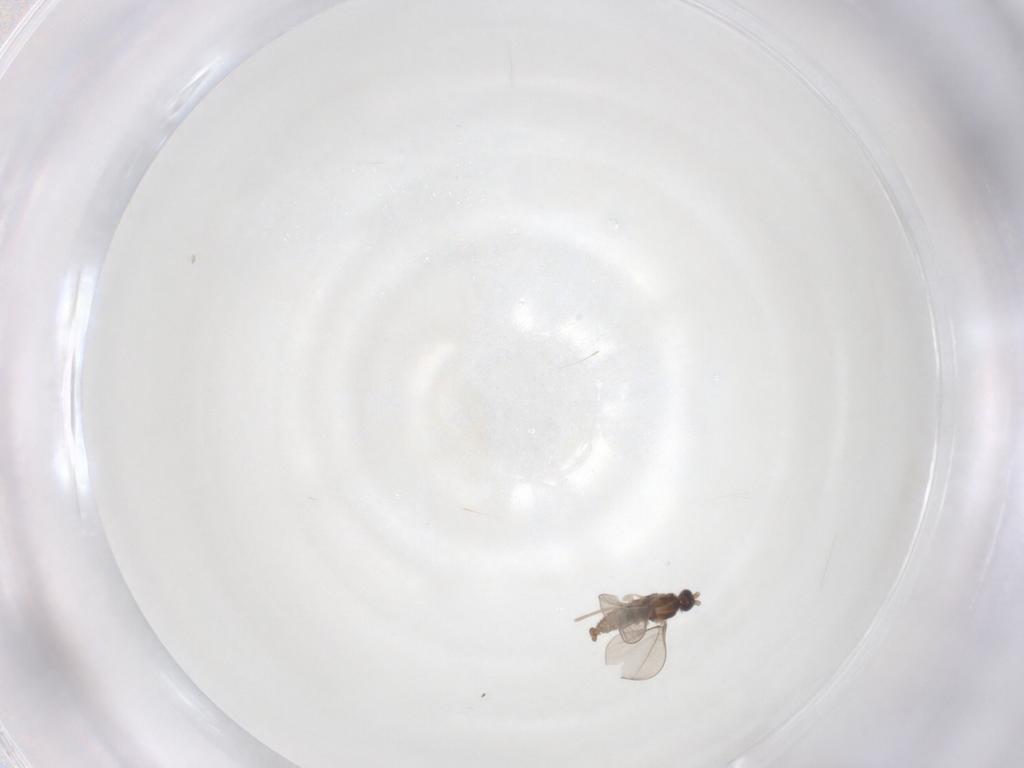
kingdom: Animalia
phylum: Arthropoda
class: Insecta
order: Diptera
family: Cecidomyiidae
